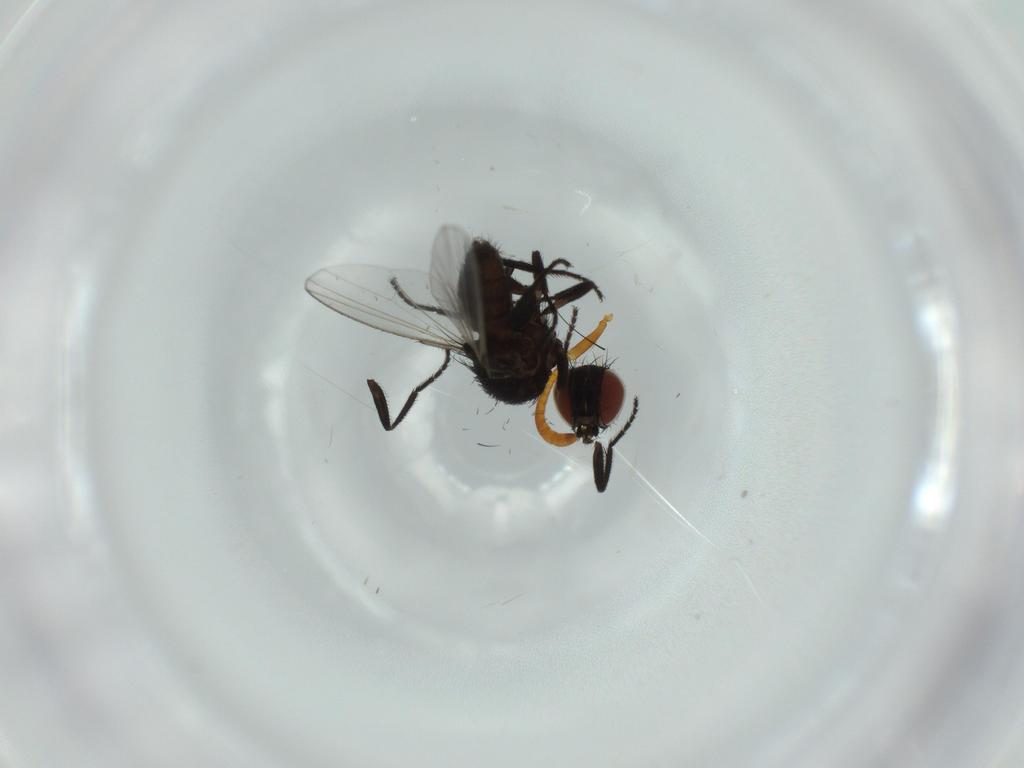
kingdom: Animalia
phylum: Arthropoda
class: Insecta
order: Diptera
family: Milichiidae
